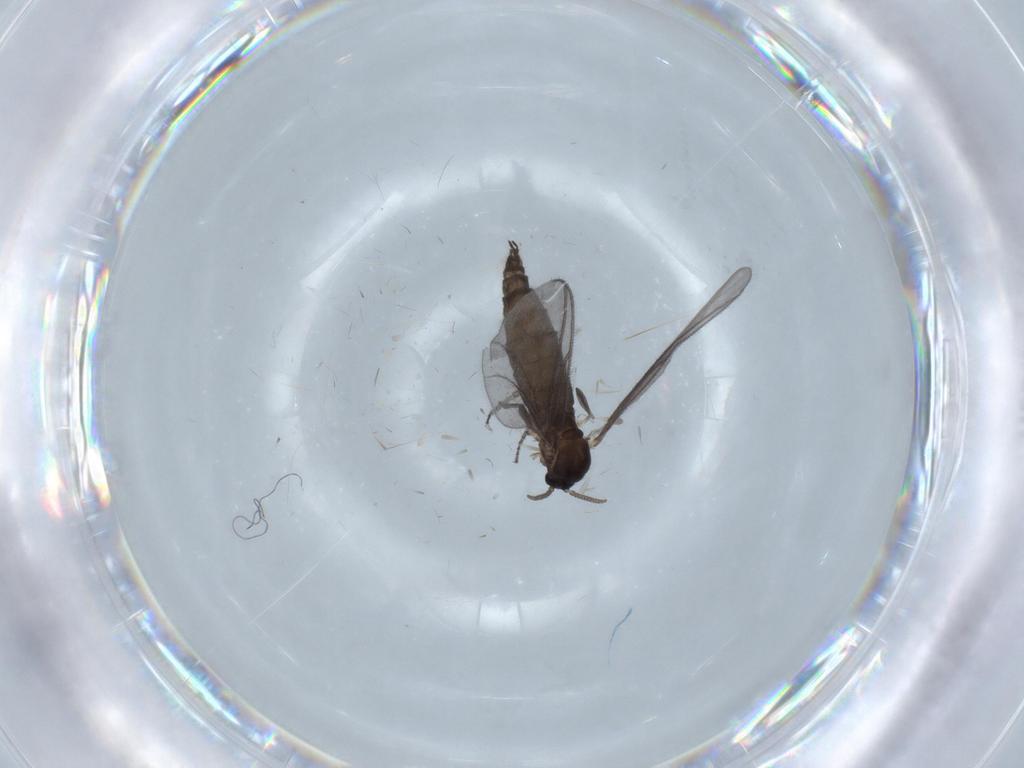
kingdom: Animalia
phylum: Arthropoda
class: Insecta
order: Diptera
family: Sciaridae
